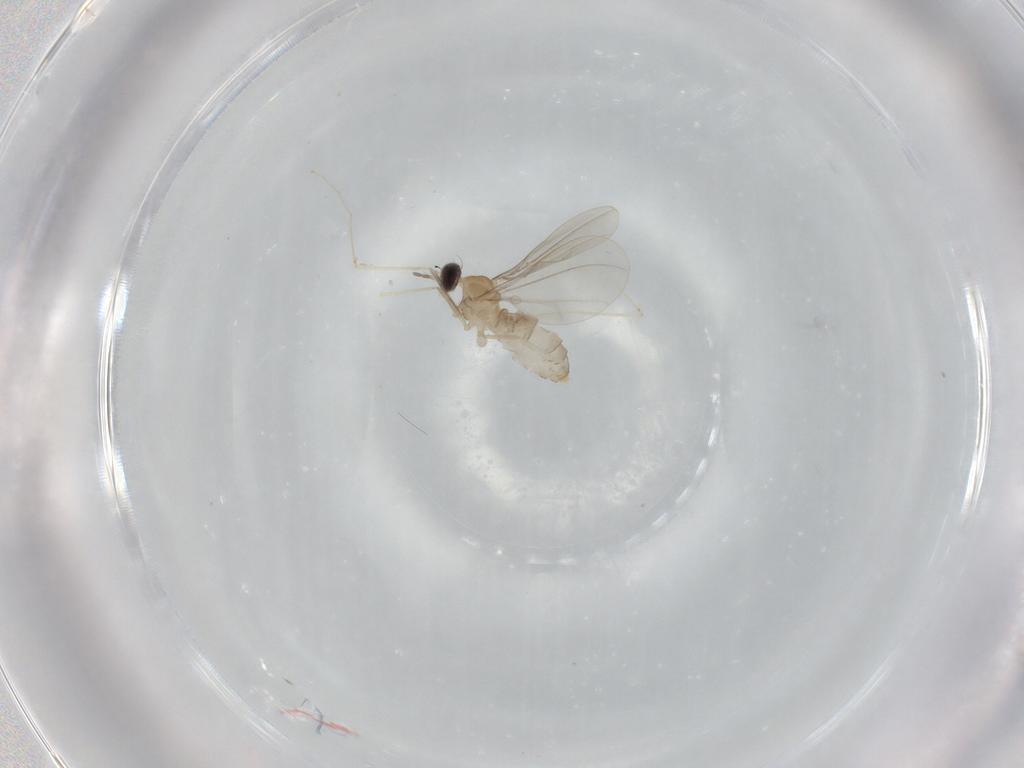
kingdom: Animalia
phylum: Arthropoda
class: Insecta
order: Diptera
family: Cecidomyiidae
